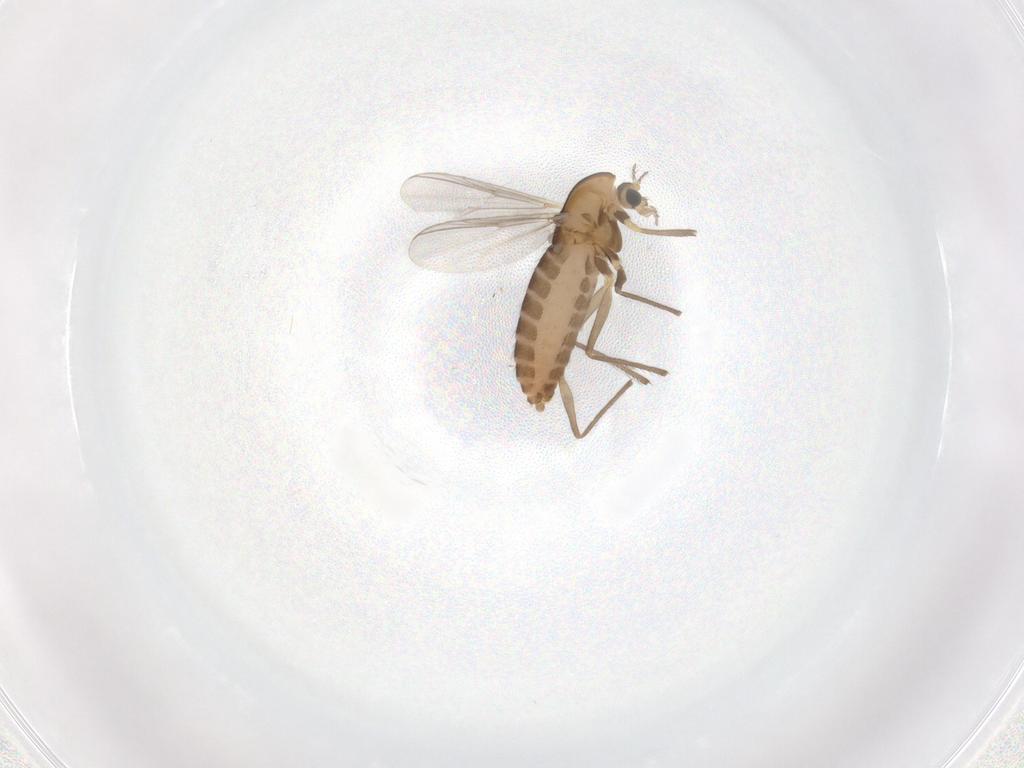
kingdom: Animalia
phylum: Arthropoda
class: Insecta
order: Diptera
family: Chironomidae
